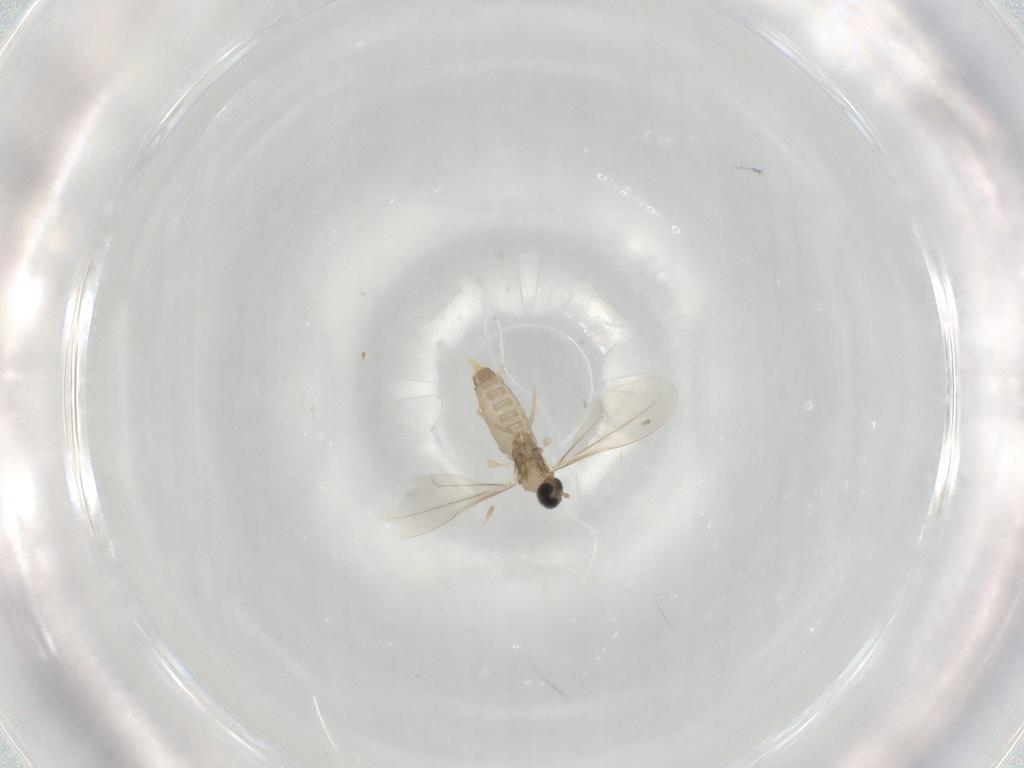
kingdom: Animalia
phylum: Arthropoda
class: Insecta
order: Diptera
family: Cecidomyiidae
